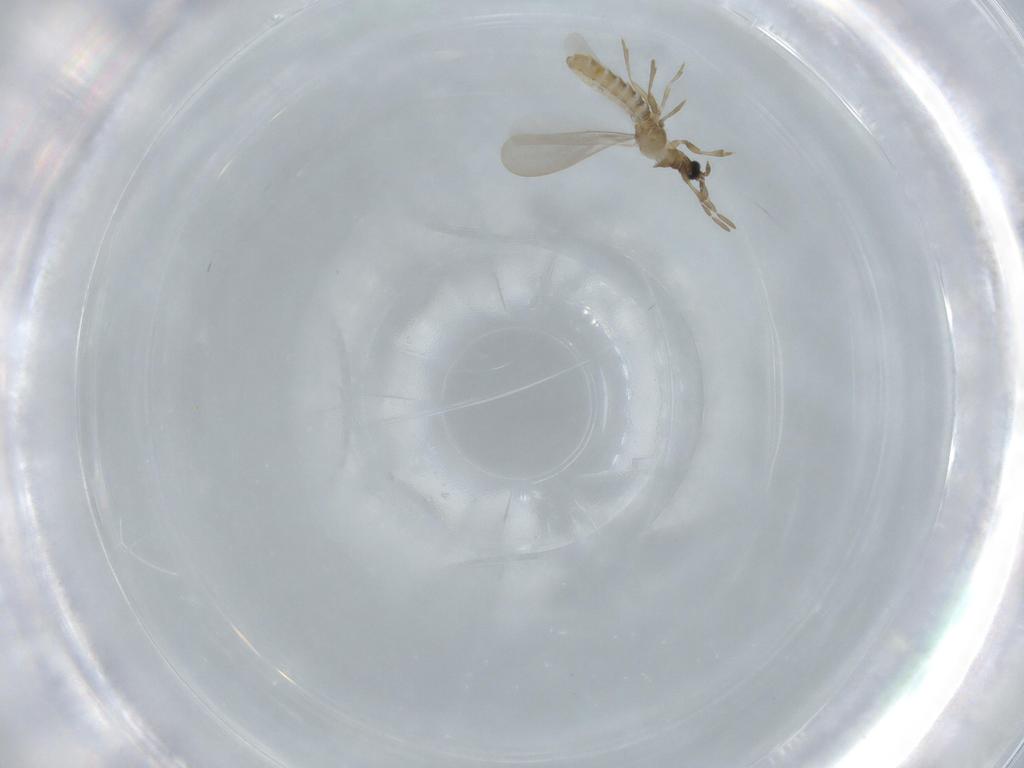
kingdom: Animalia
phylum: Arthropoda
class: Insecta
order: Hemiptera
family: Enicocephalidae
